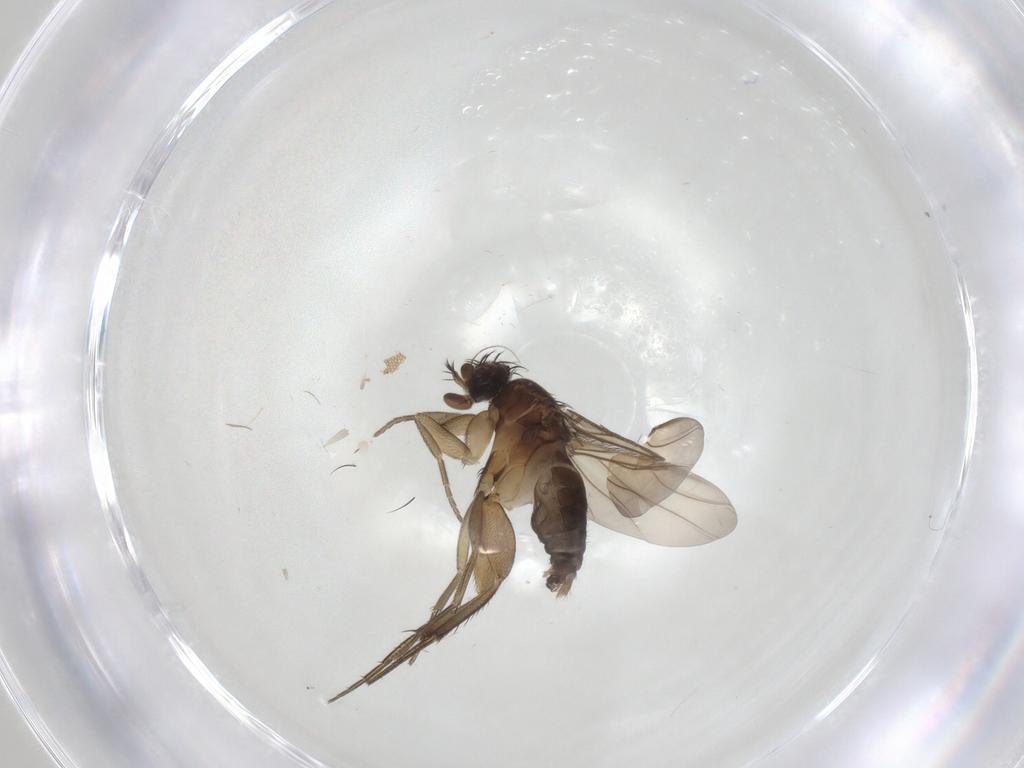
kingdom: Animalia
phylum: Arthropoda
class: Insecta
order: Diptera
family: Phoridae
